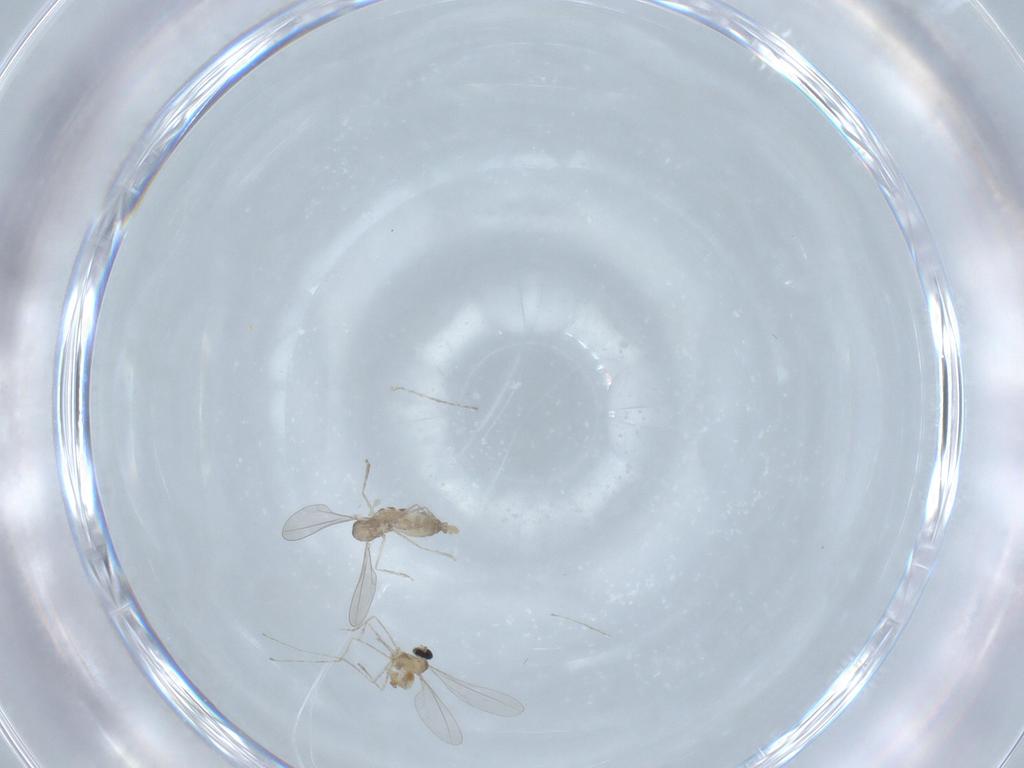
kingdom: Animalia
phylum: Arthropoda
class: Insecta
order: Diptera
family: Cecidomyiidae
